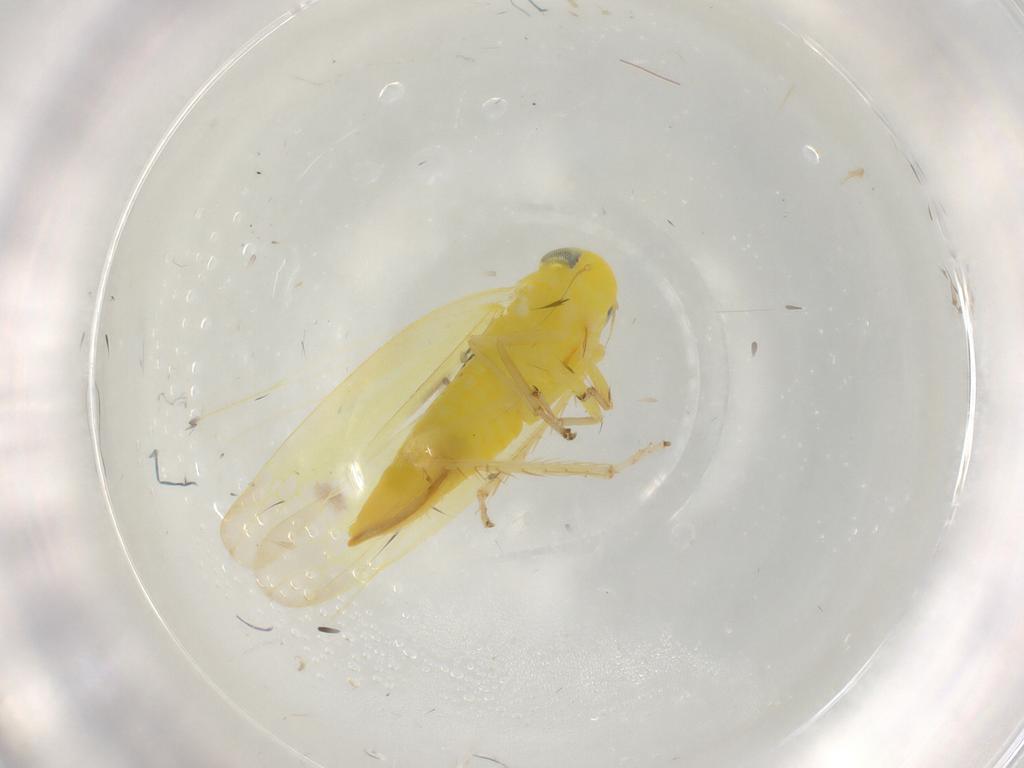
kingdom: Animalia
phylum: Arthropoda
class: Insecta
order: Hemiptera
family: Cicadellidae
